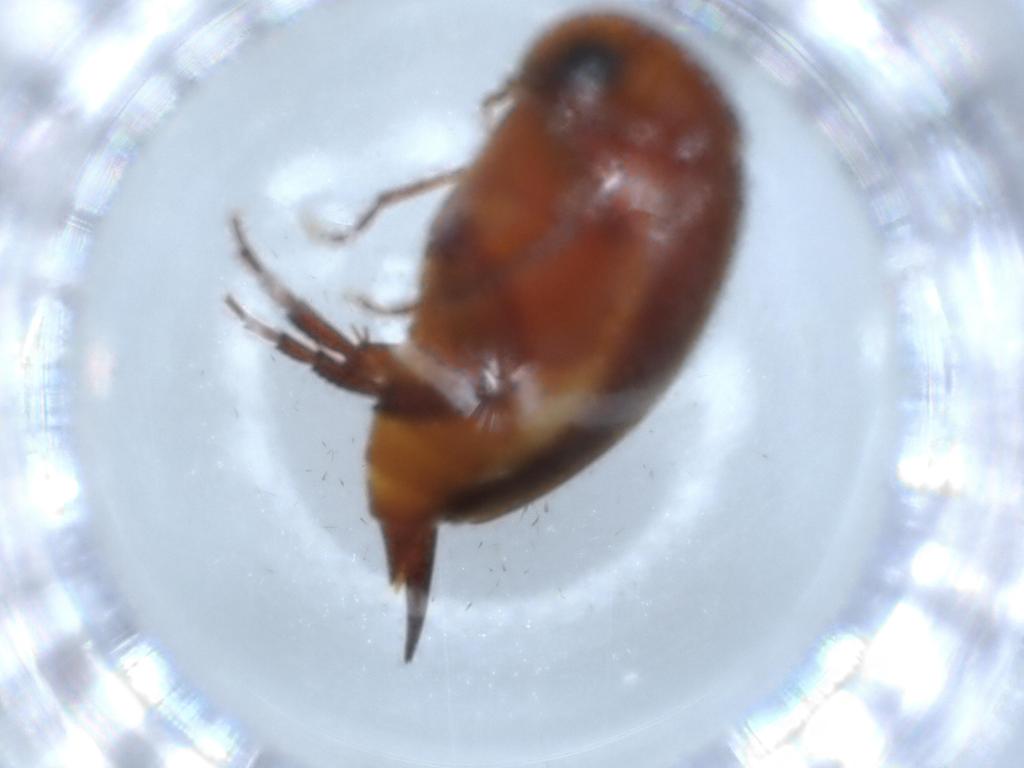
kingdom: Animalia
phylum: Arthropoda
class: Insecta
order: Coleoptera
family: Nitidulidae
